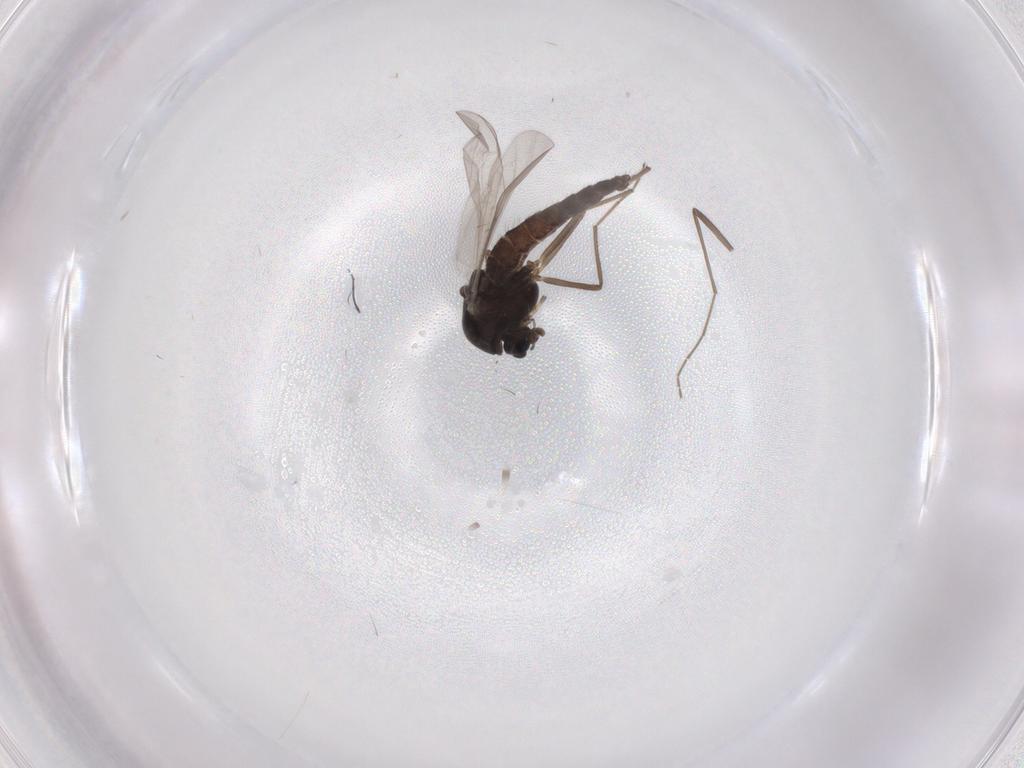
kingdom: Animalia
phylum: Arthropoda
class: Insecta
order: Diptera
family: Chironomidae
